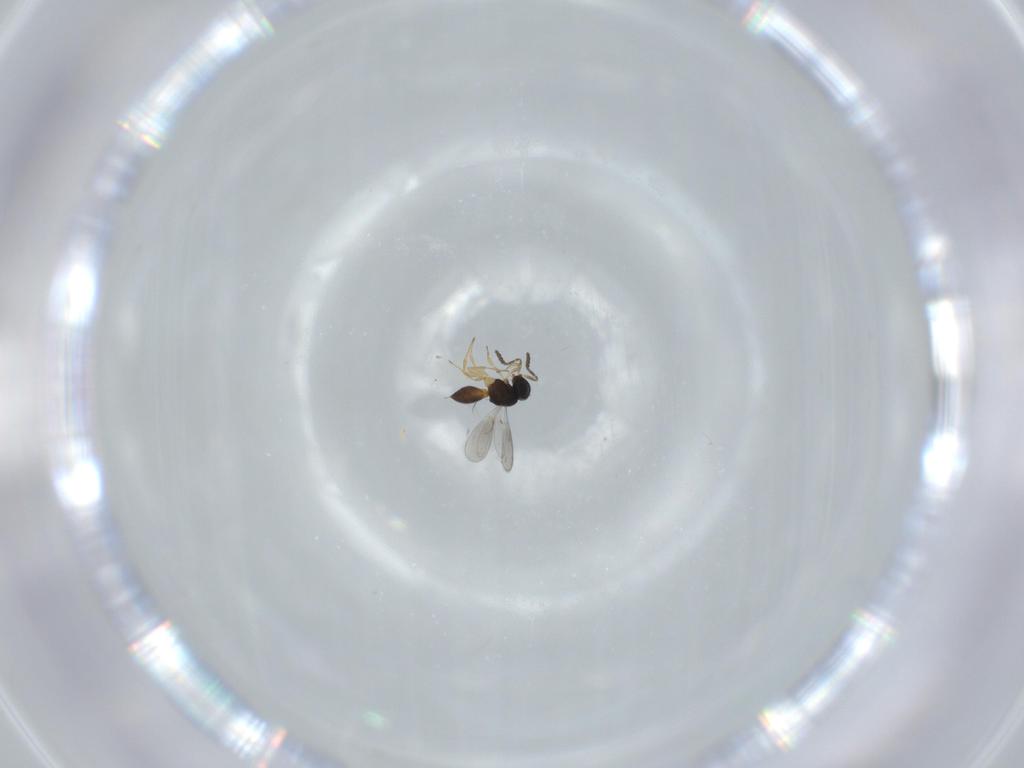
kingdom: Animalia
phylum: Arthropoda
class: Insecta
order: Hymenoptera
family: Scelionidae
